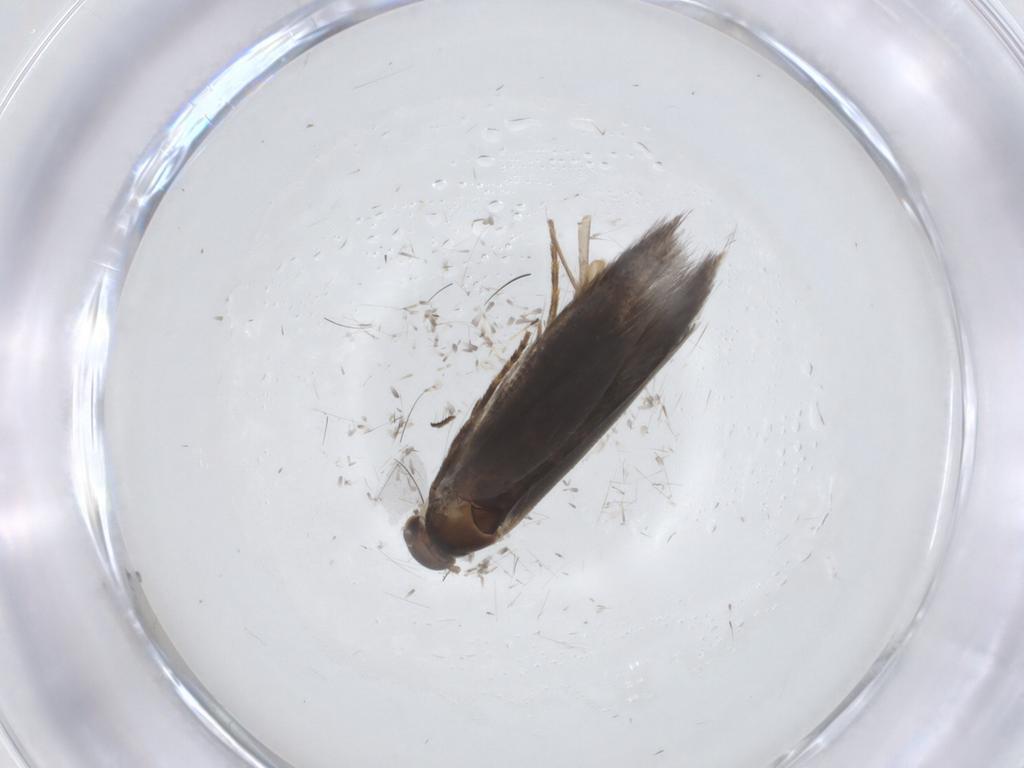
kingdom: Animalia
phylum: Arthropoda
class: Insecta
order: Lepidoptera
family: Elachistidae
